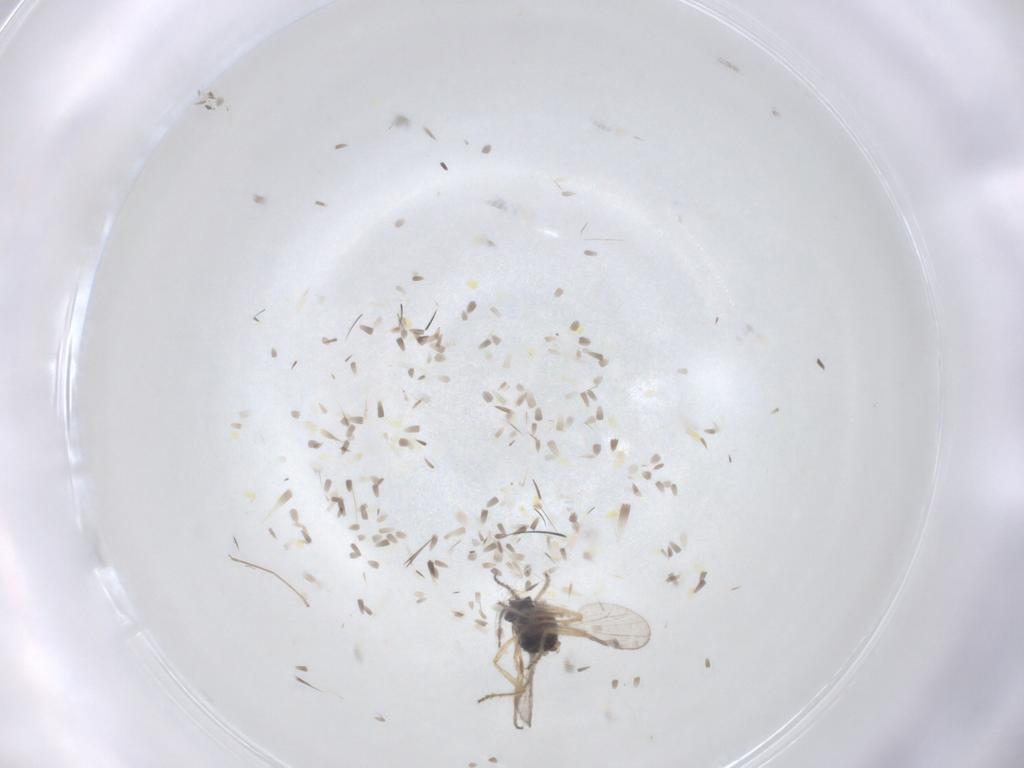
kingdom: Animalia
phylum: Arthropoda
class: Insecta
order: Diptera
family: Ceratopogonidae
